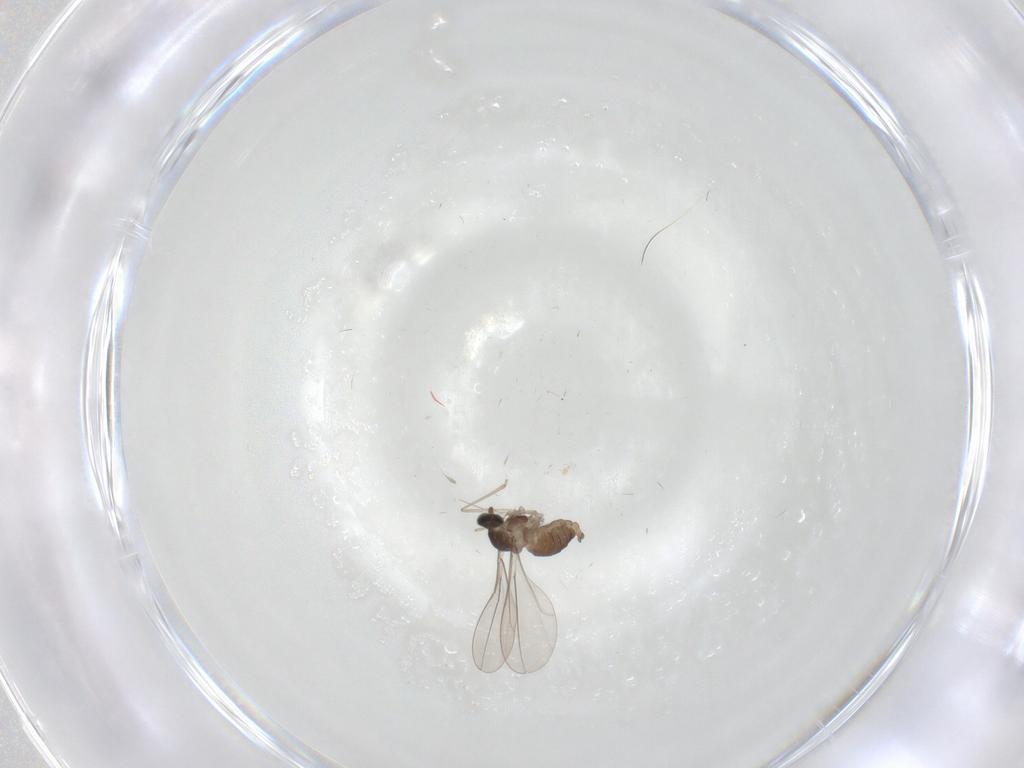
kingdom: Animalia
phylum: Arthropoda
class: Insecta
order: Diptera
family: Cecidomyiidae
